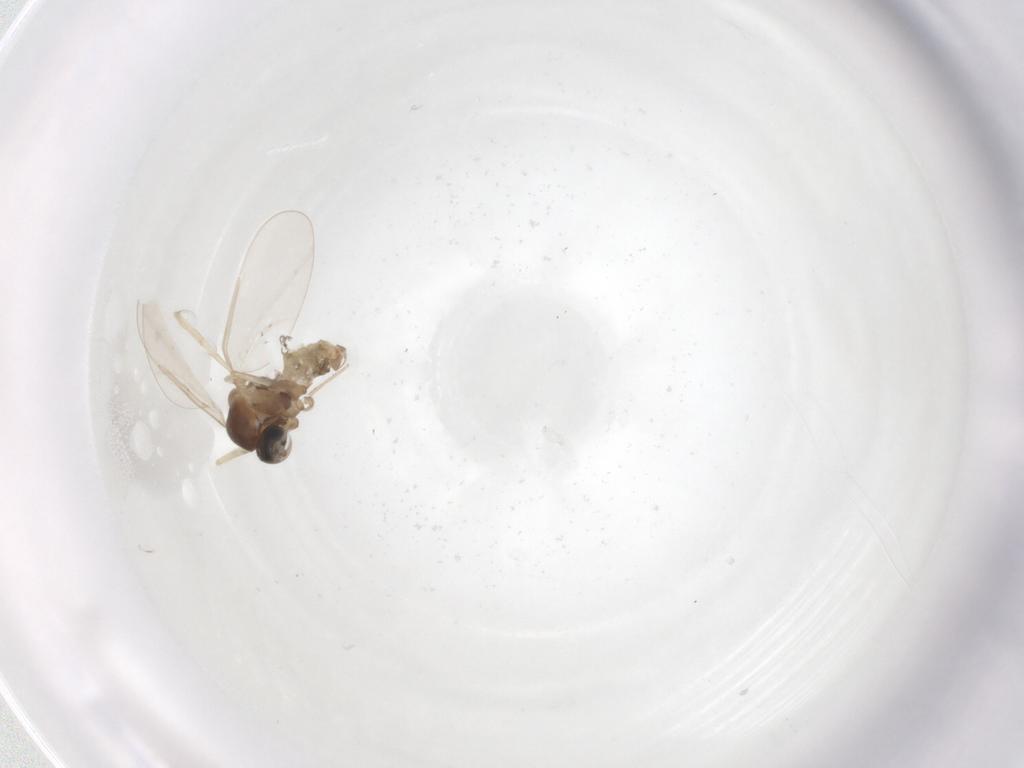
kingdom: Animalia
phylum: Arthropoda
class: Insecta
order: Diptera
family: Cecidomyiidae
